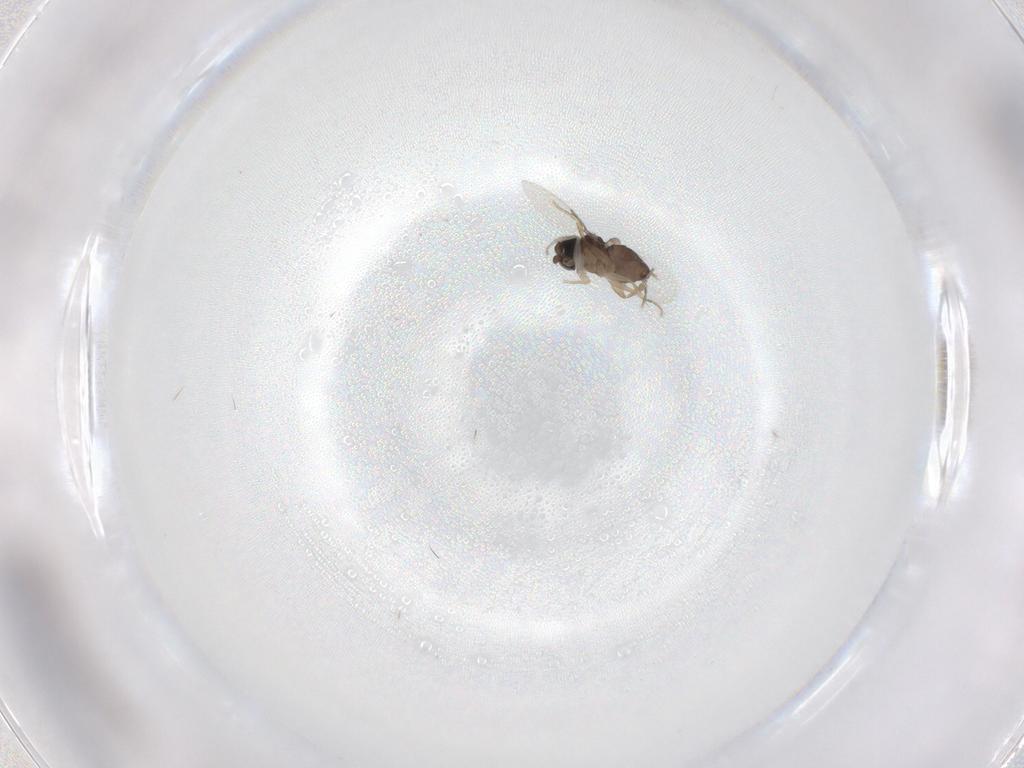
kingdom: Animalia
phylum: Arthropoda
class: Insecta
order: Diptera
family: Phoridae
